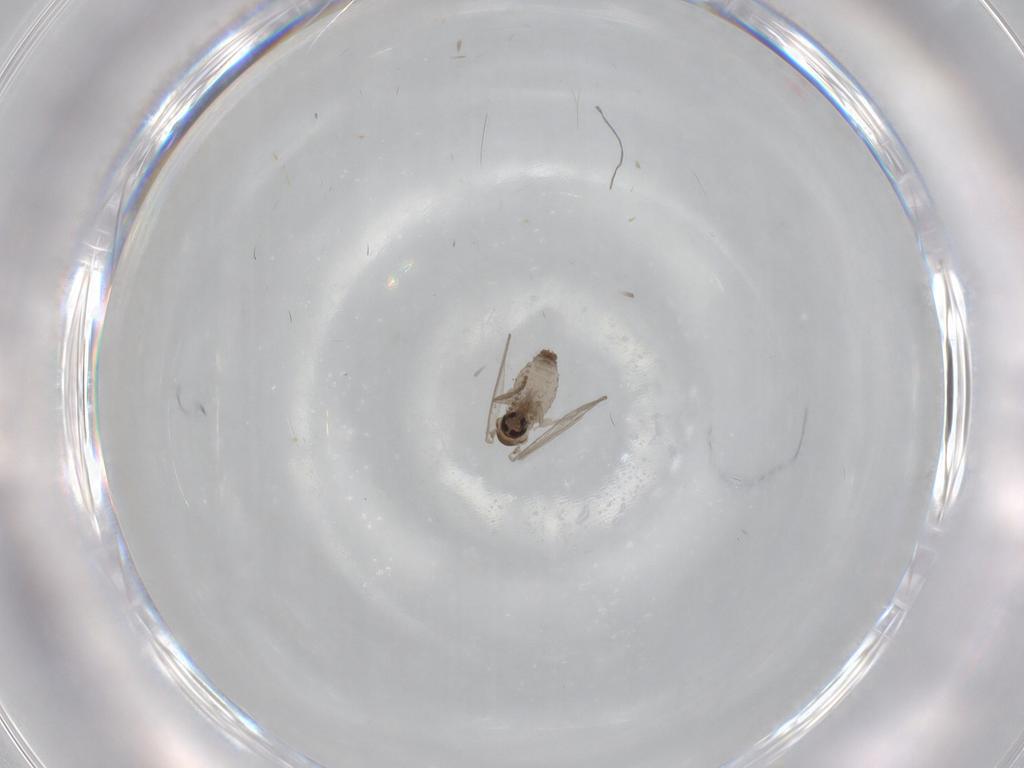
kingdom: Animalia
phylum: Arthropoda
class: Insecta
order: Diptera
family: Psychodidae
